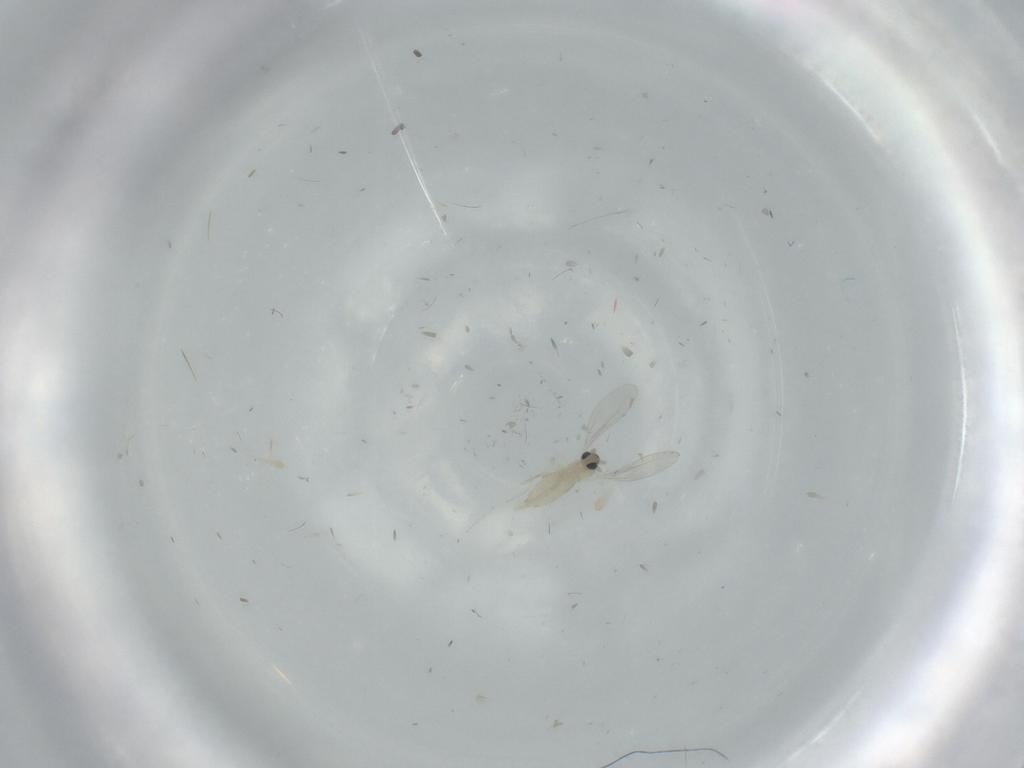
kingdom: Animalia
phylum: Arthropoda
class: Insecta
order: Diptera
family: Cecidomyiidae
